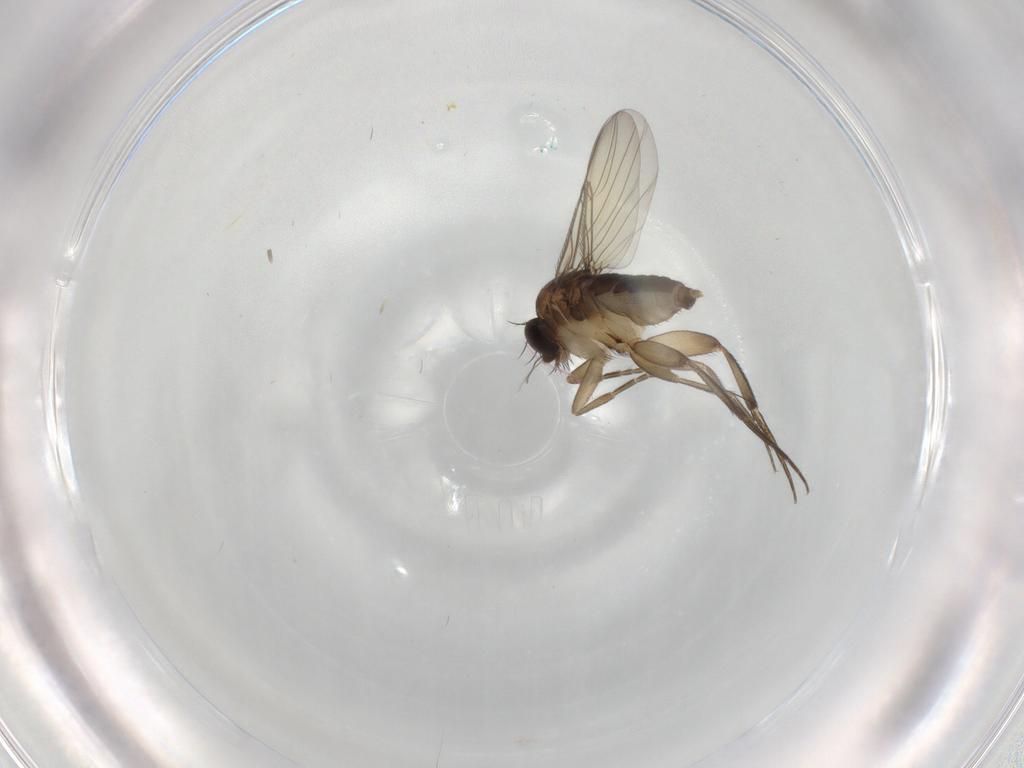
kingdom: Animalia
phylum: Arthropoda
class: Insecta
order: Diptera
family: Phoridae
